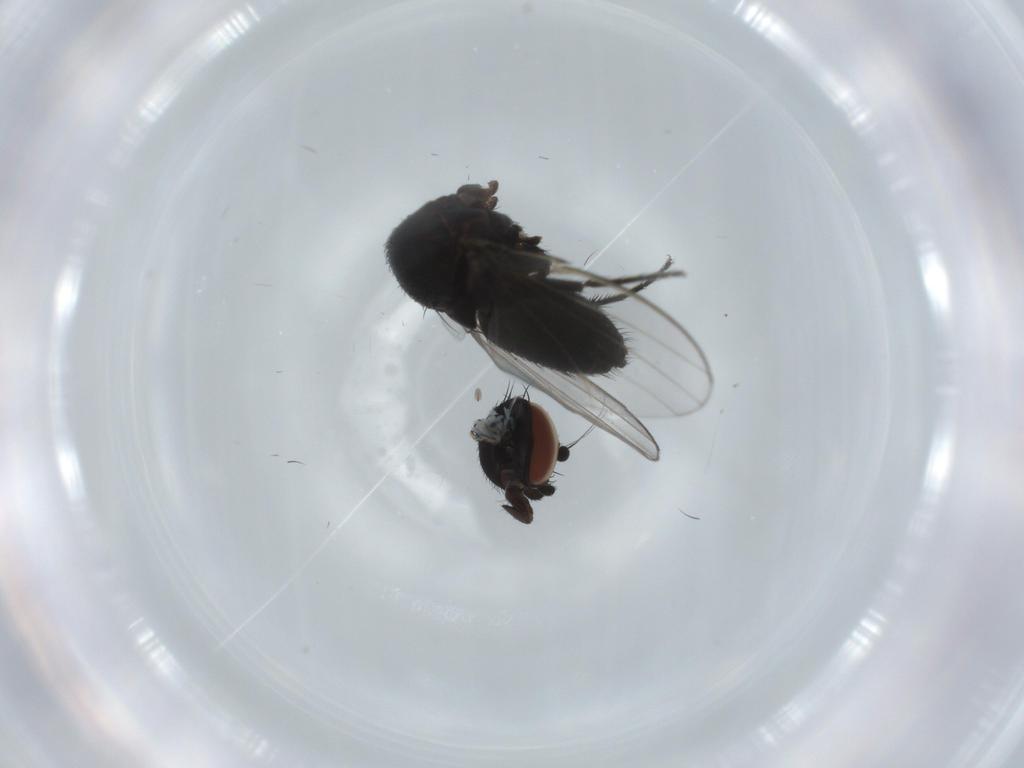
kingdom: Animalia
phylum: Arthropoda
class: Insecta
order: Diptera
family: Milichiidae
